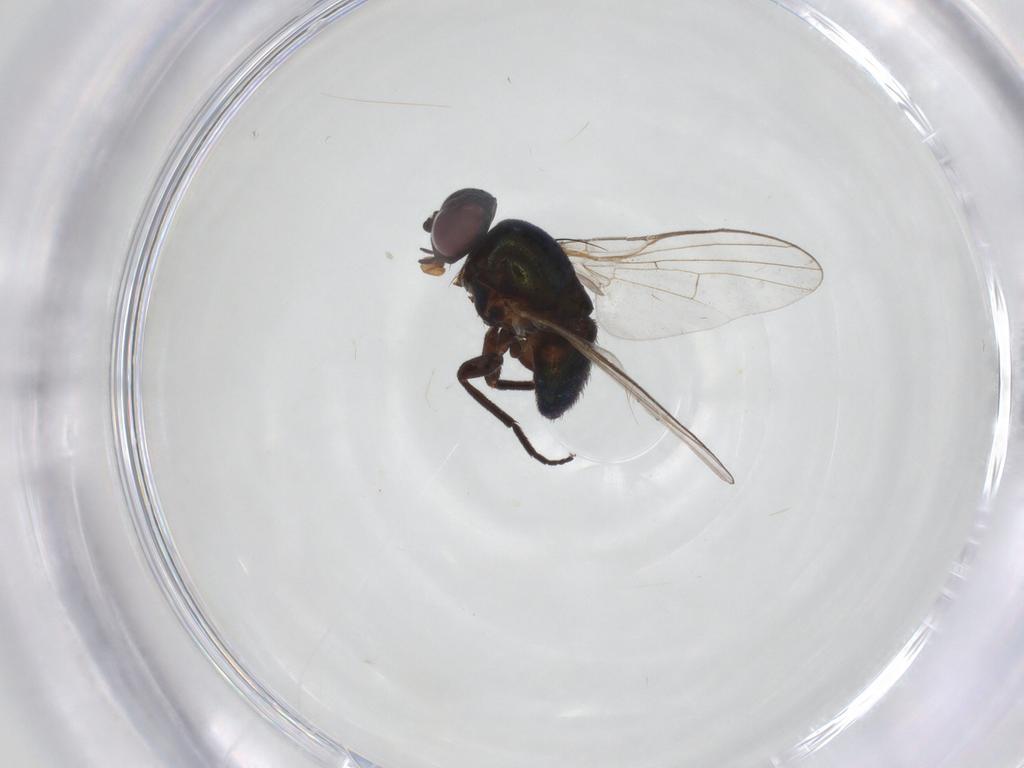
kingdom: Animalia
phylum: Arthropoda
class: Insecta
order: Diptera
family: Agromyzidae
